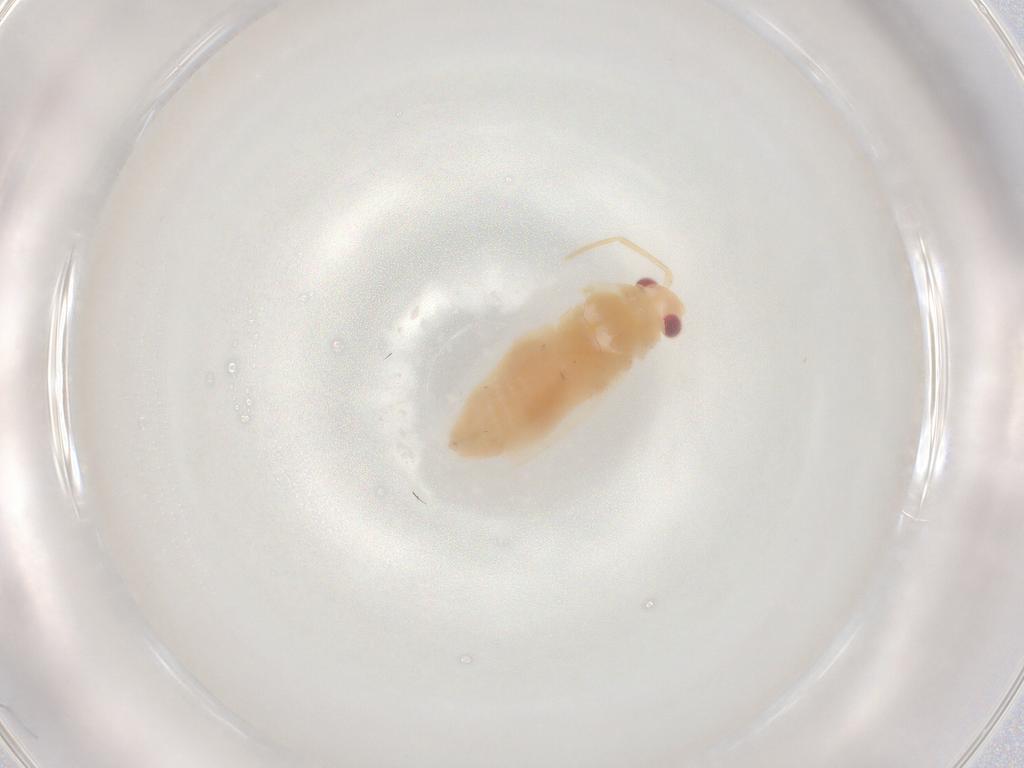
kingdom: Animalia
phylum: Arthropoda
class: Insecta
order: Hemiptera
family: Miridae
